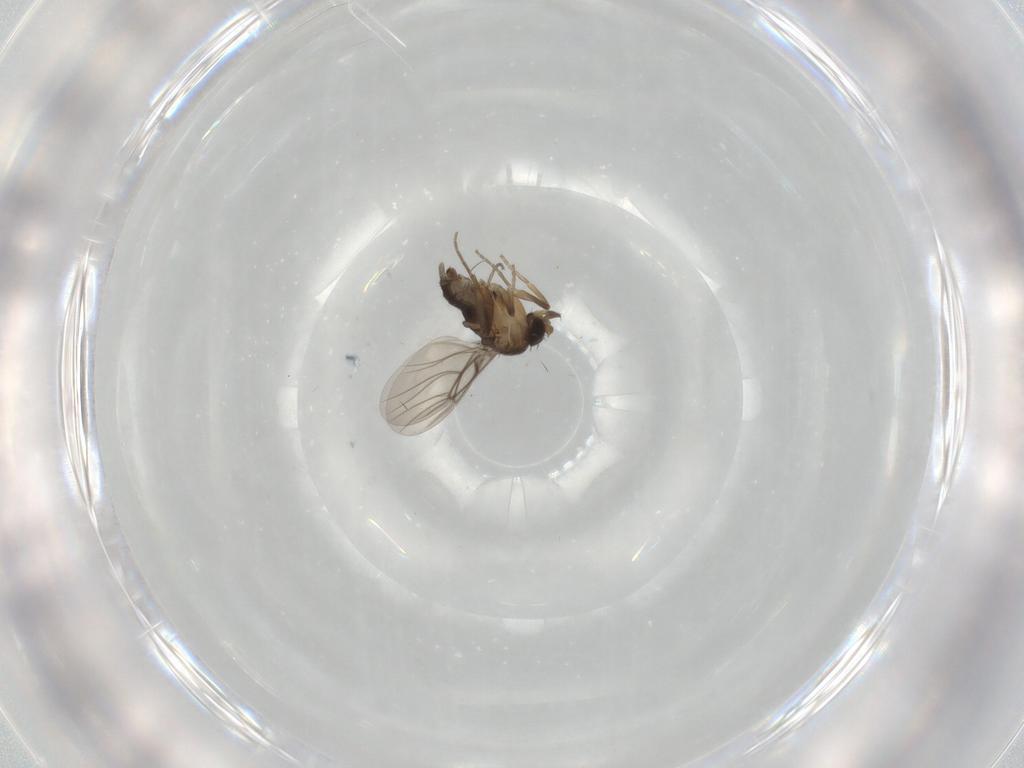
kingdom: Animalia
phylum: Arthropoda
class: Insecta
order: Diptera
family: Phoridae
